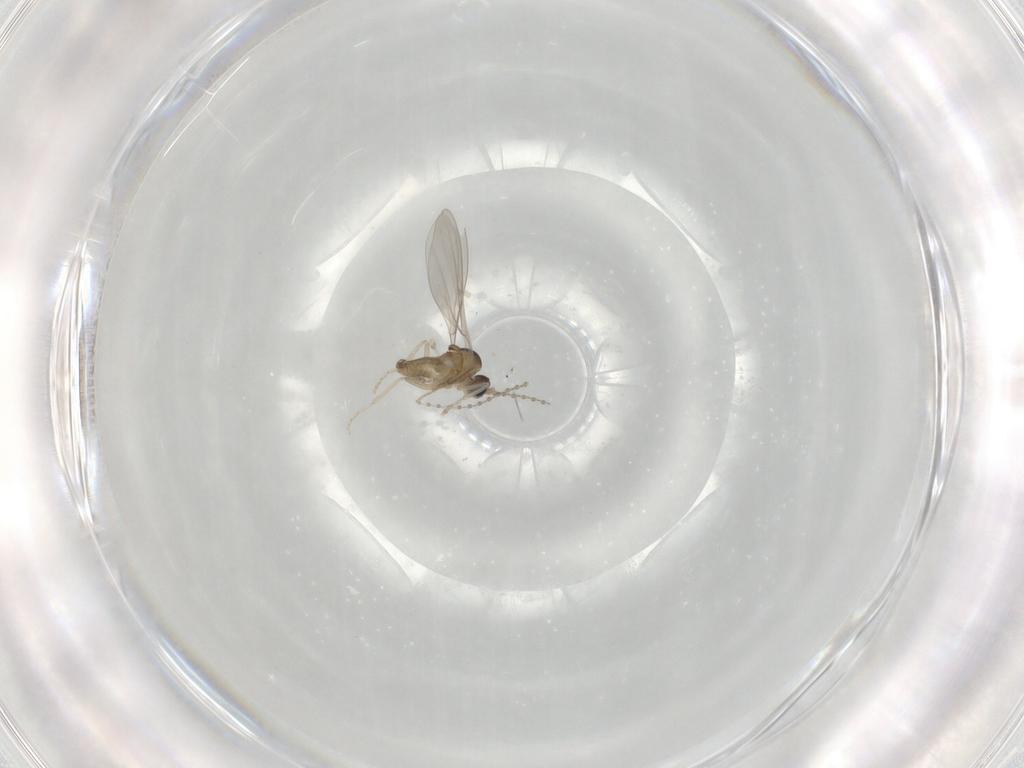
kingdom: Animalia
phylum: Arthropoda
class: Insecta
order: Diptera
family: Cecidomyiidae
